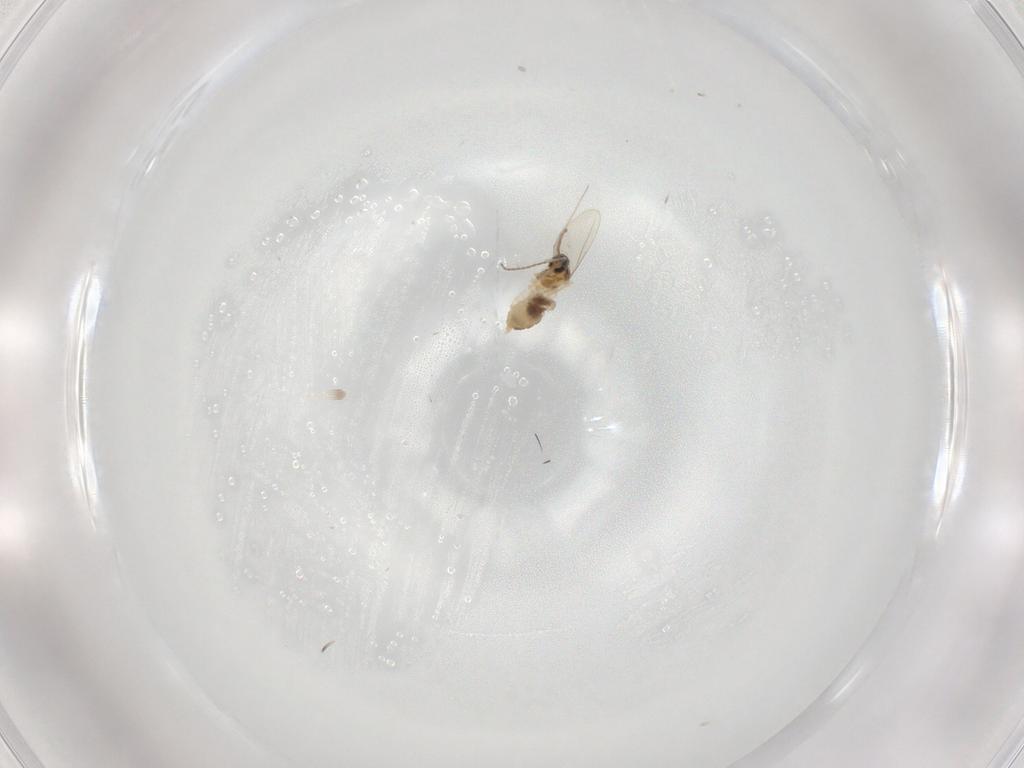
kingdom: Animalia
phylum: Arthropoda
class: Insecta
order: Diptera
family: Cecidomyiidae
